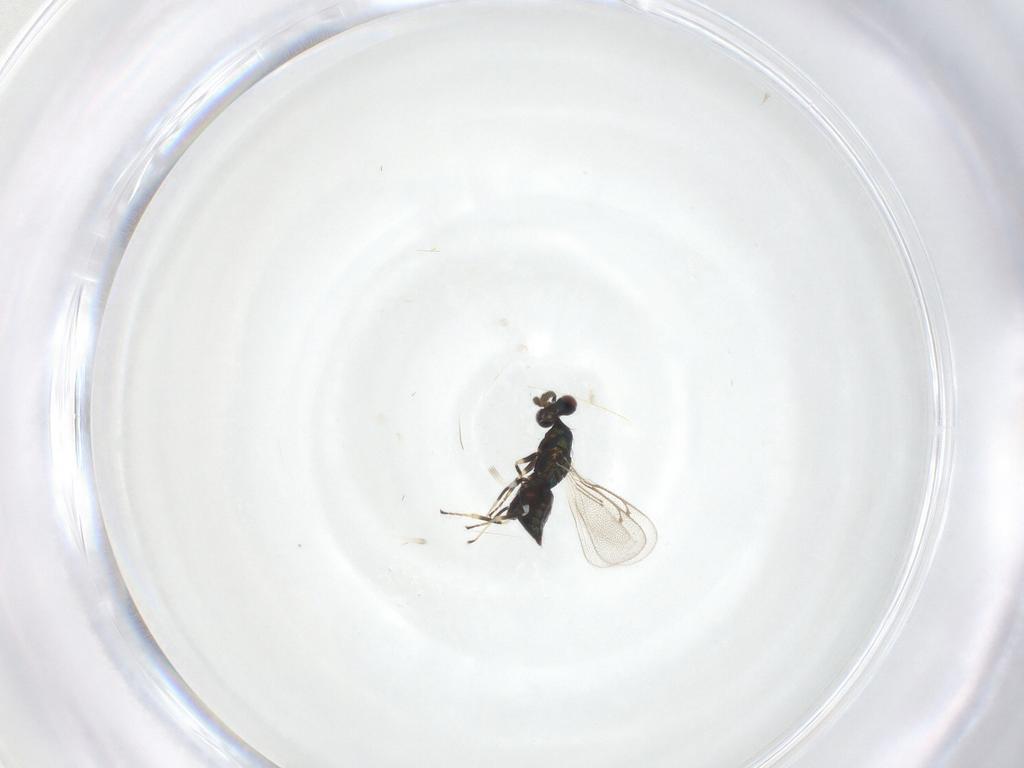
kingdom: Animalia
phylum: Arthropoda
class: Insecta
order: Hymenoptera
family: Eulophidae
